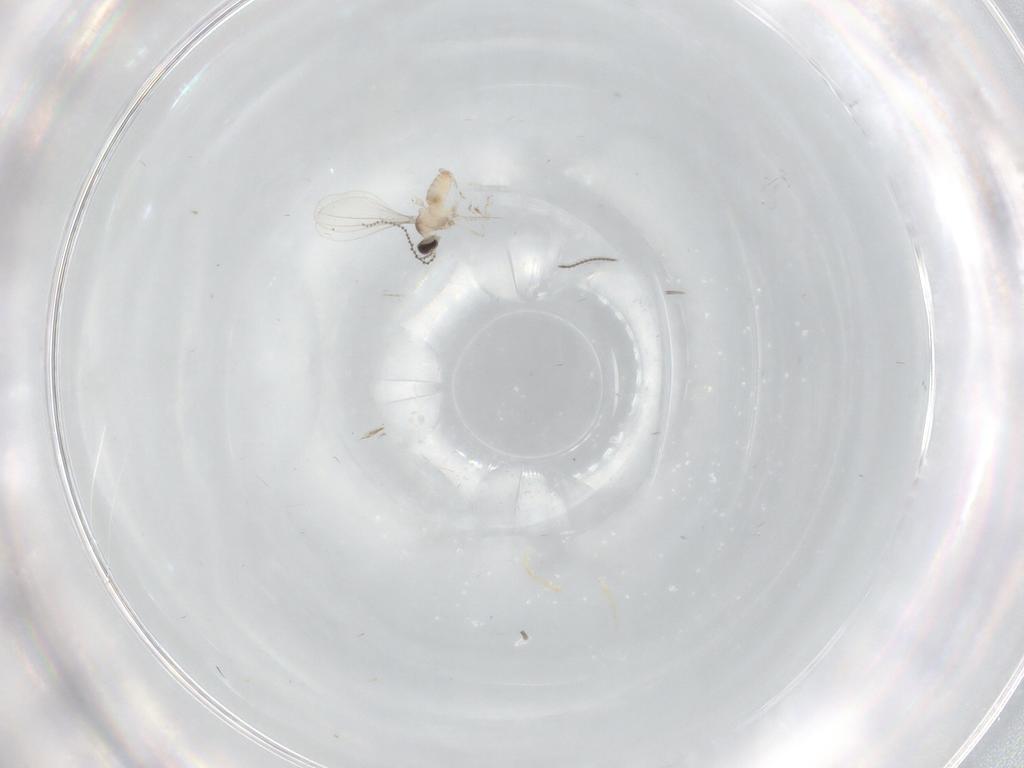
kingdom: Animalia
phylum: Arthropoda
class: Insecta
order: Diptera
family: Cecidomyiidae
